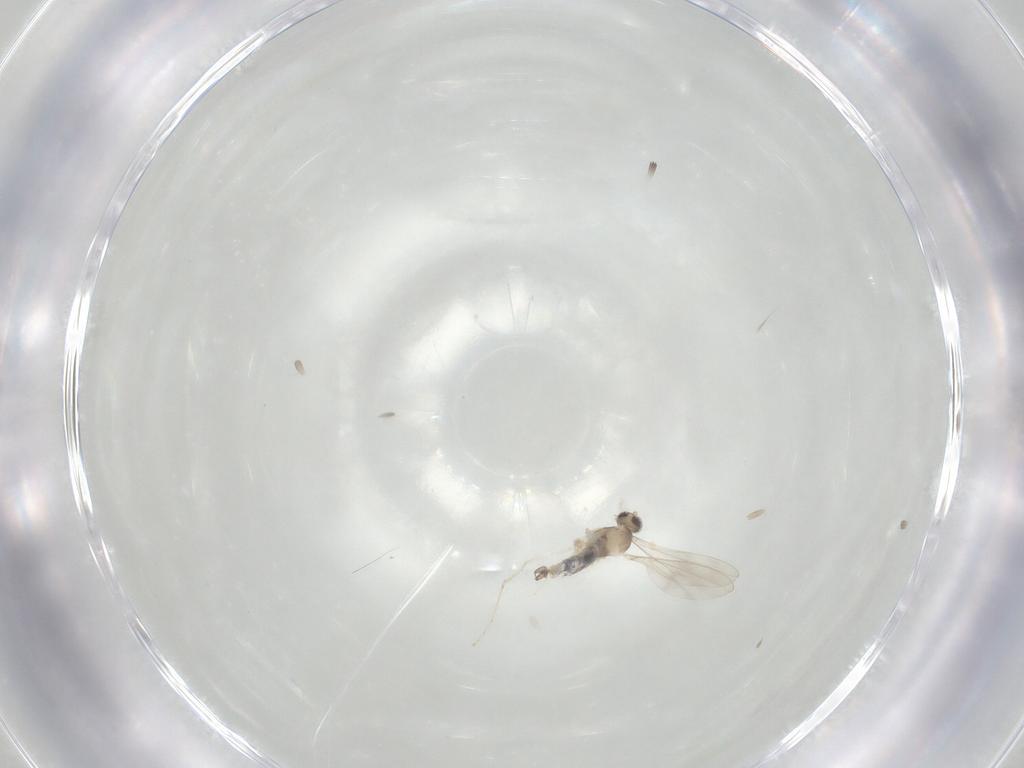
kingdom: Animalia
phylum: Arthropoda
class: Insecta
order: Diptera
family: Cecidomyiidae
